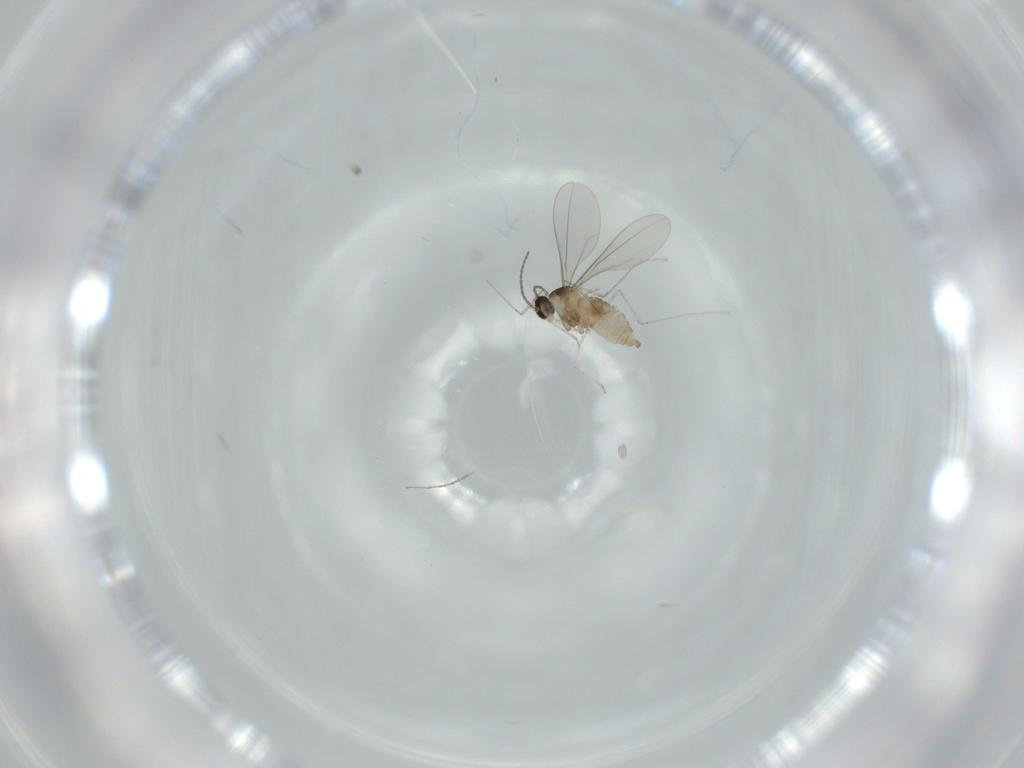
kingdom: Animalia
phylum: Arthropoda
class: Insecta
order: Diptera
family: Cecidomyiidae
